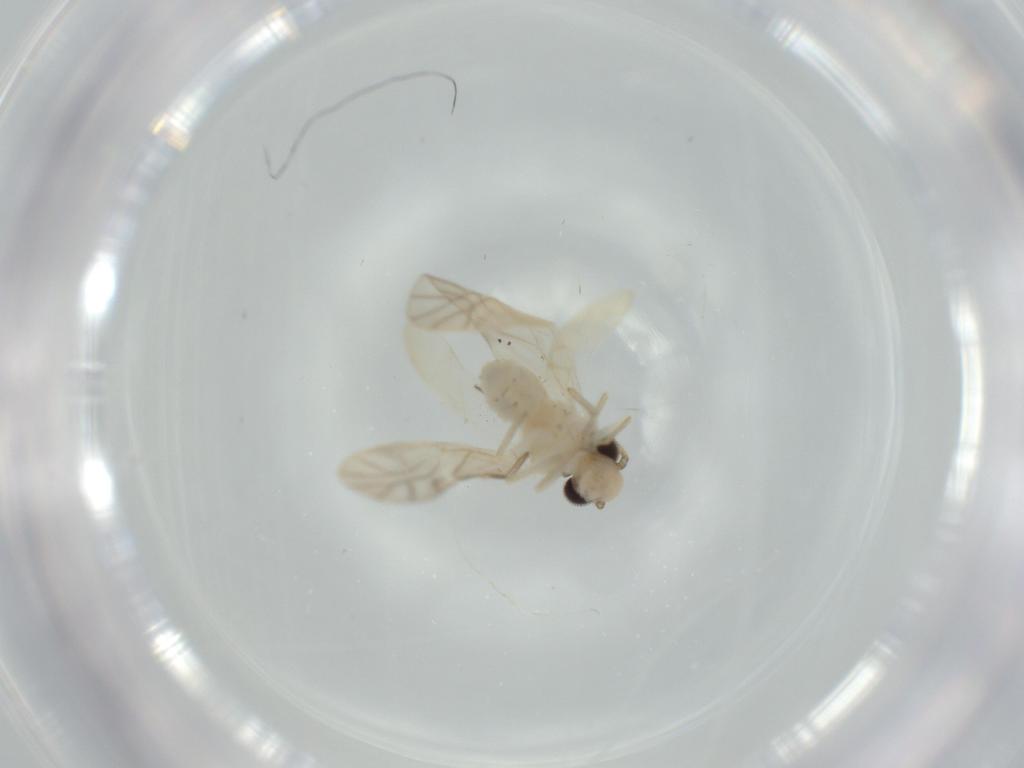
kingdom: Animalia
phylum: Arthropoda
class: Insecta
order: Psocodea
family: Caeciliusidae
